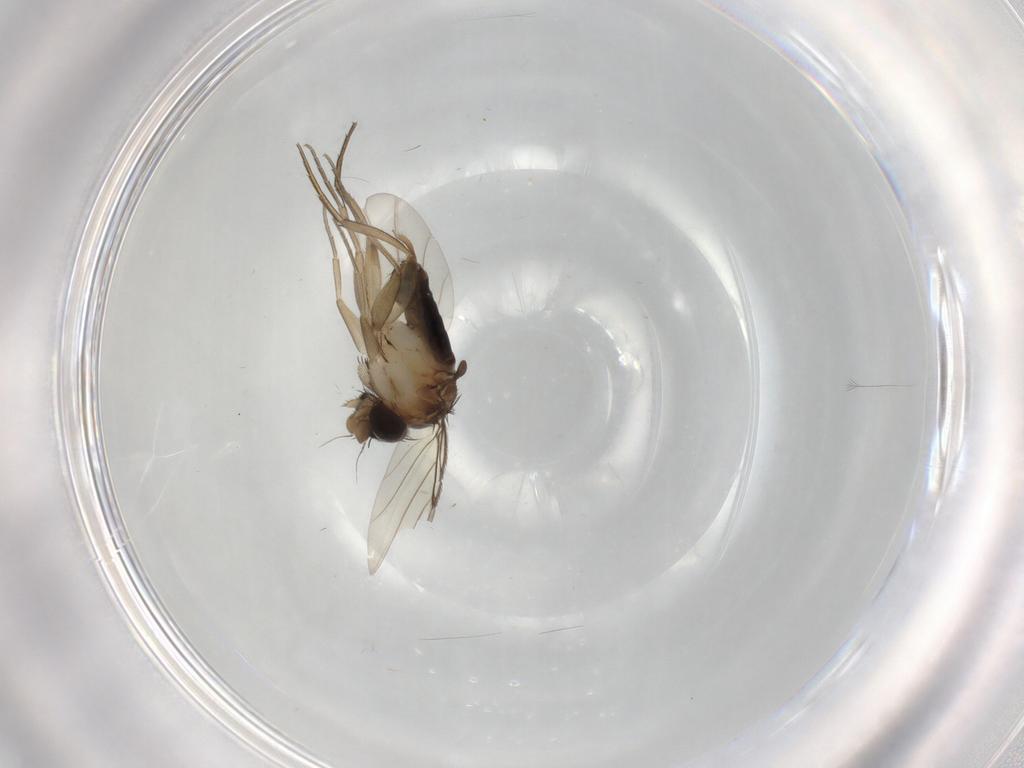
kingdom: Animalia
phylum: Arthropoda
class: Insecta
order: Diptera
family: Phoridae
